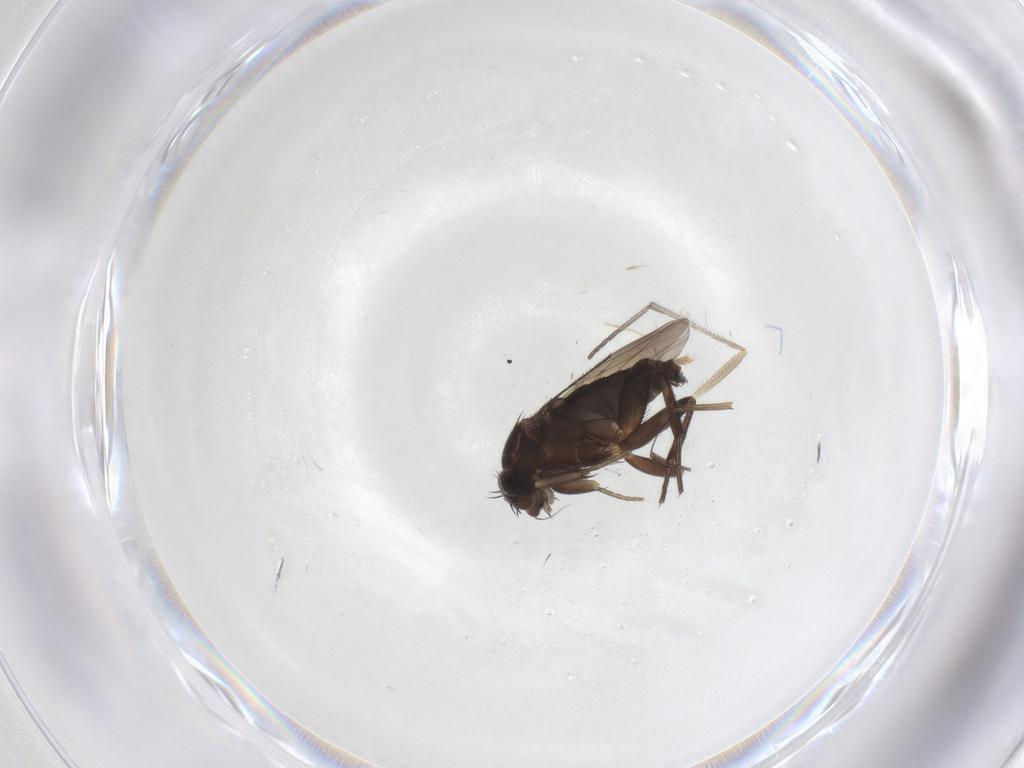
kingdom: Animalia
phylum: Arthropoda
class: Insecta
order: Diptera
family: Phoridae
